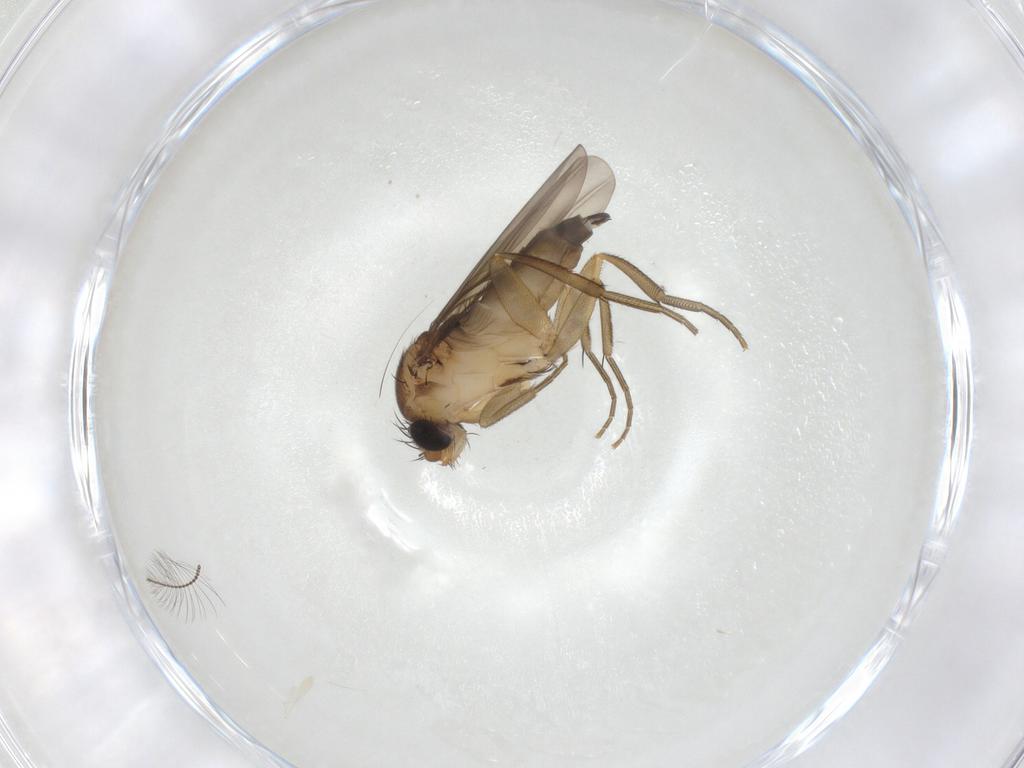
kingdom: Animalia
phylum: Arthropoda
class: Insecta
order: Diptera
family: Phoridae
